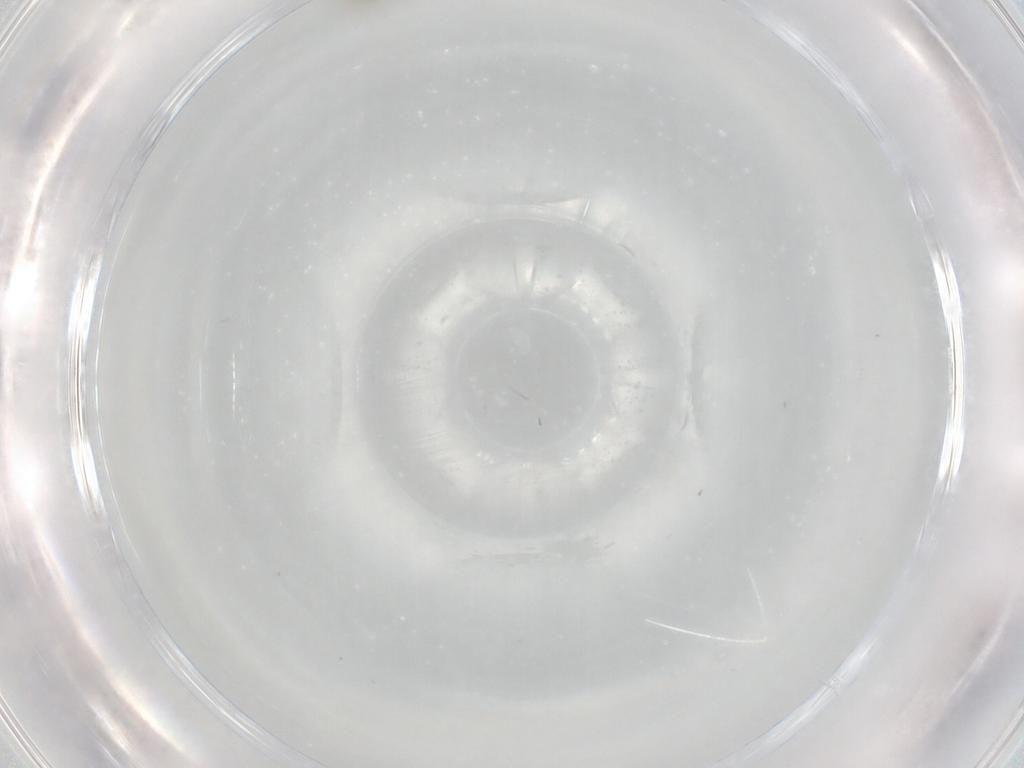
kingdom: Animalia
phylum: Arthropoda
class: Insecta
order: Diptera
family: Cecidomyiidae
